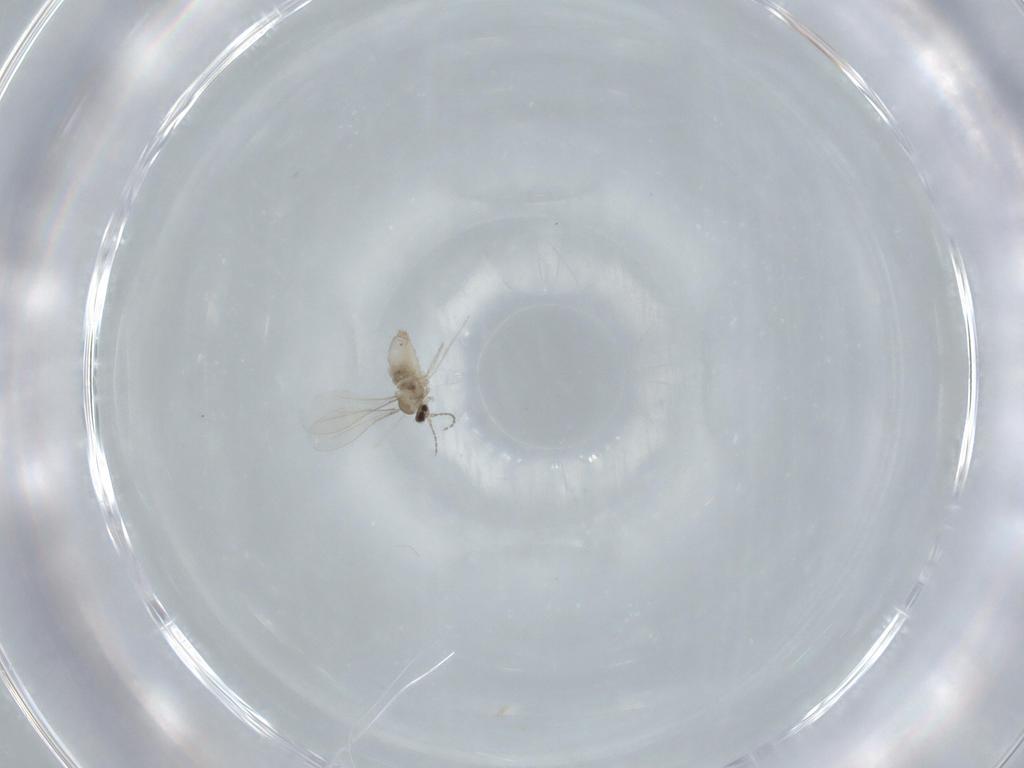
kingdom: Animalia
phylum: Arthropoda
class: Insecta
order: Diptera
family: Cecidomyiidae
